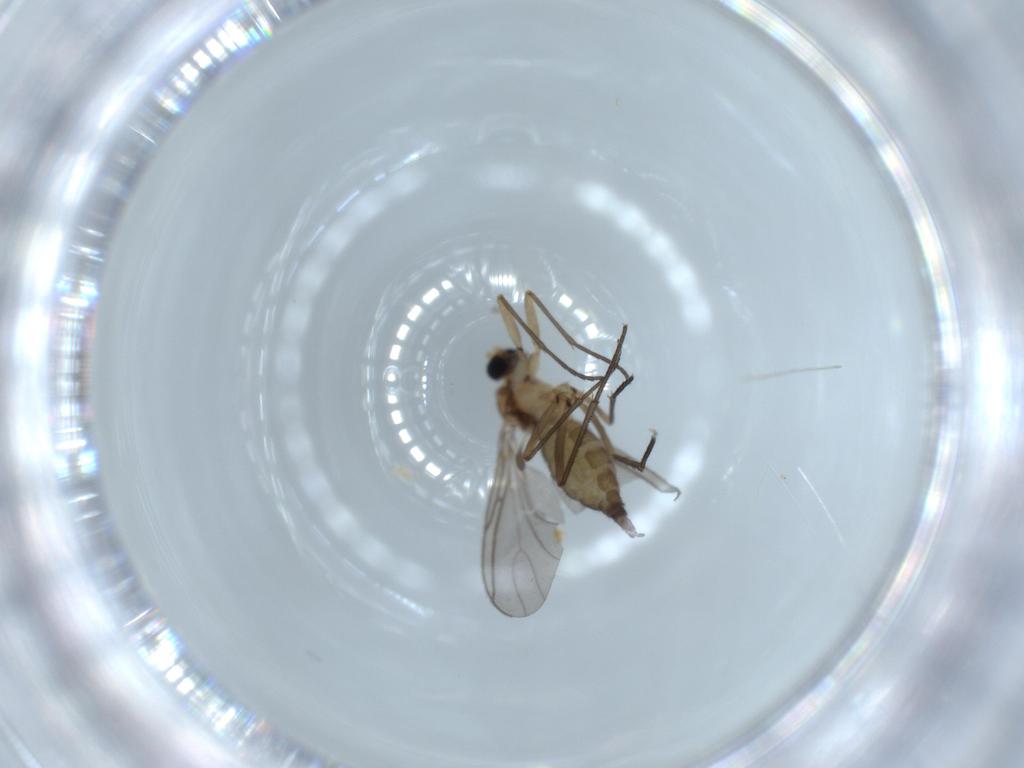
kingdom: Animalia
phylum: Arthropoda
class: Insecta
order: Diptera
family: Sciaridae
